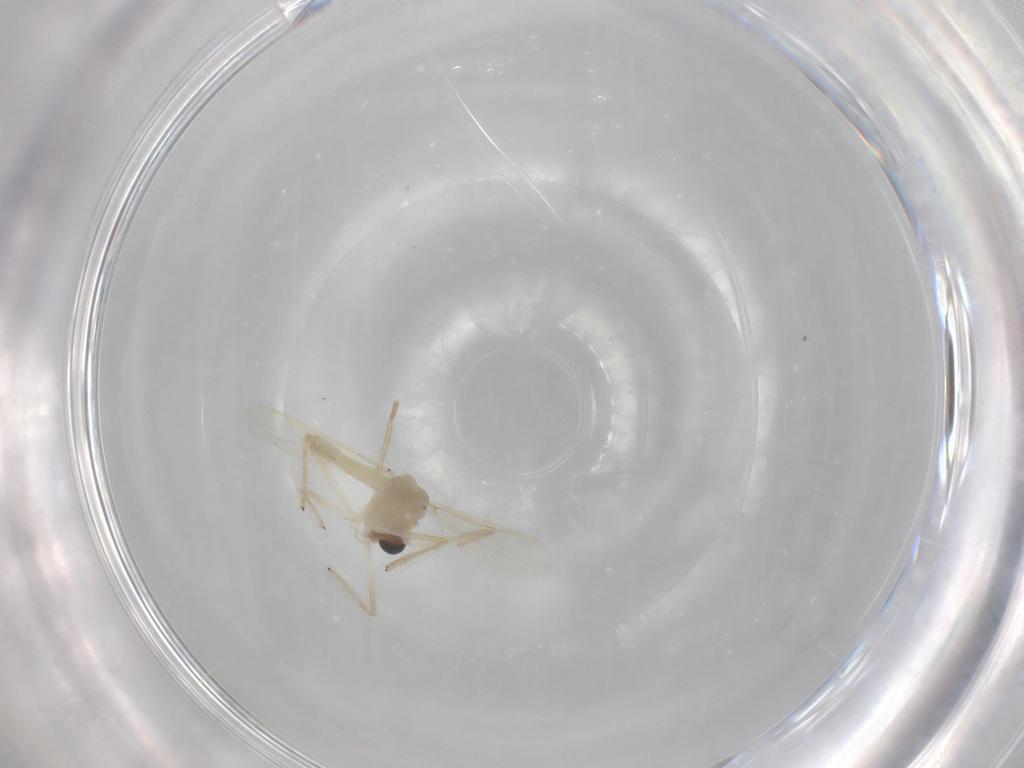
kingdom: Animalia
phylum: Arthropoda
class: Insecta
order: Diptera
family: Chironomidae
